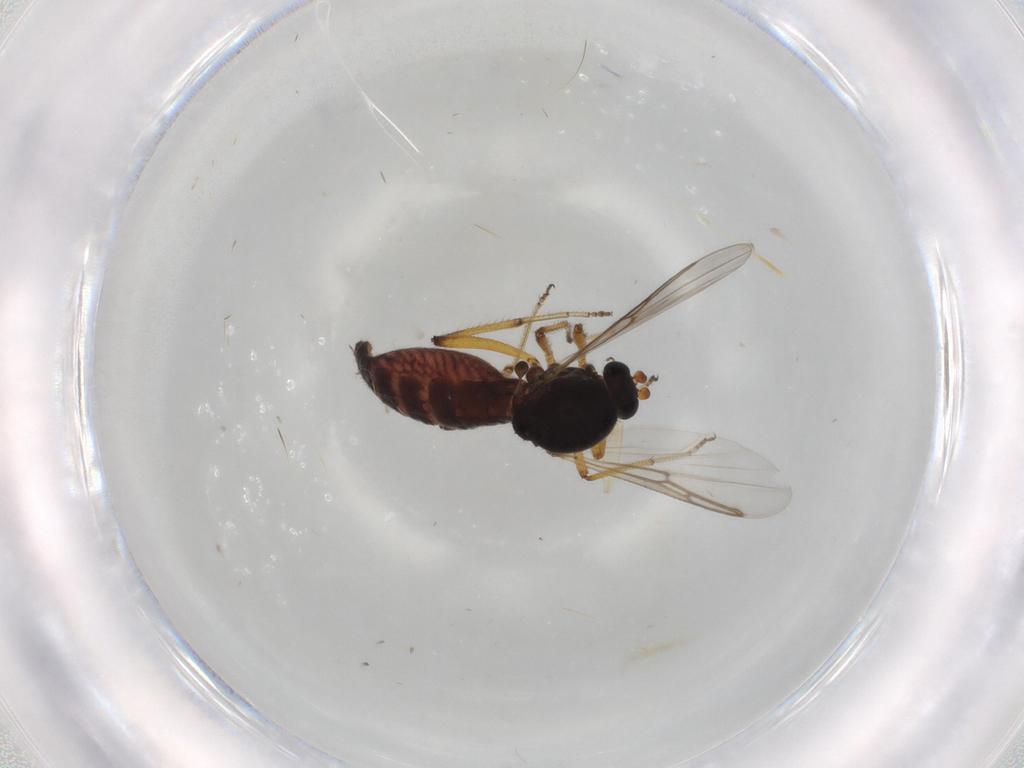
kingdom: Animalia
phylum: Arthropoda
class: Insecta
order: Diptera
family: Ceratopogonidae
